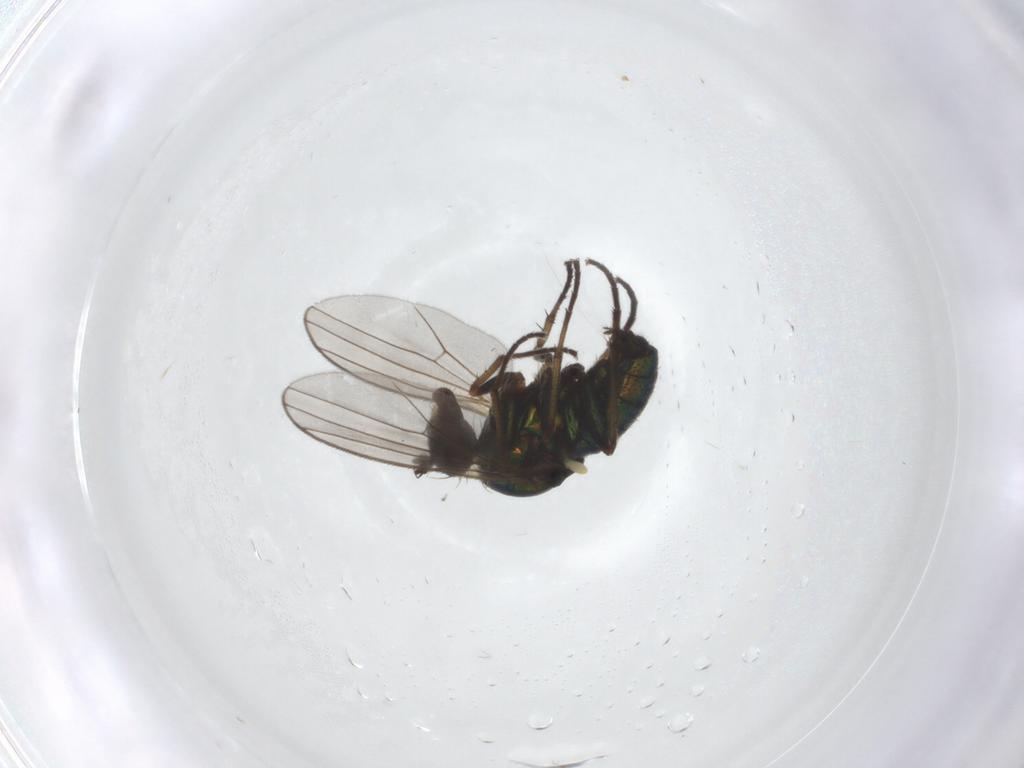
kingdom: Animalia
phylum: Arthropoda
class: Insecta
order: Diptera
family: Dolichopodidae
